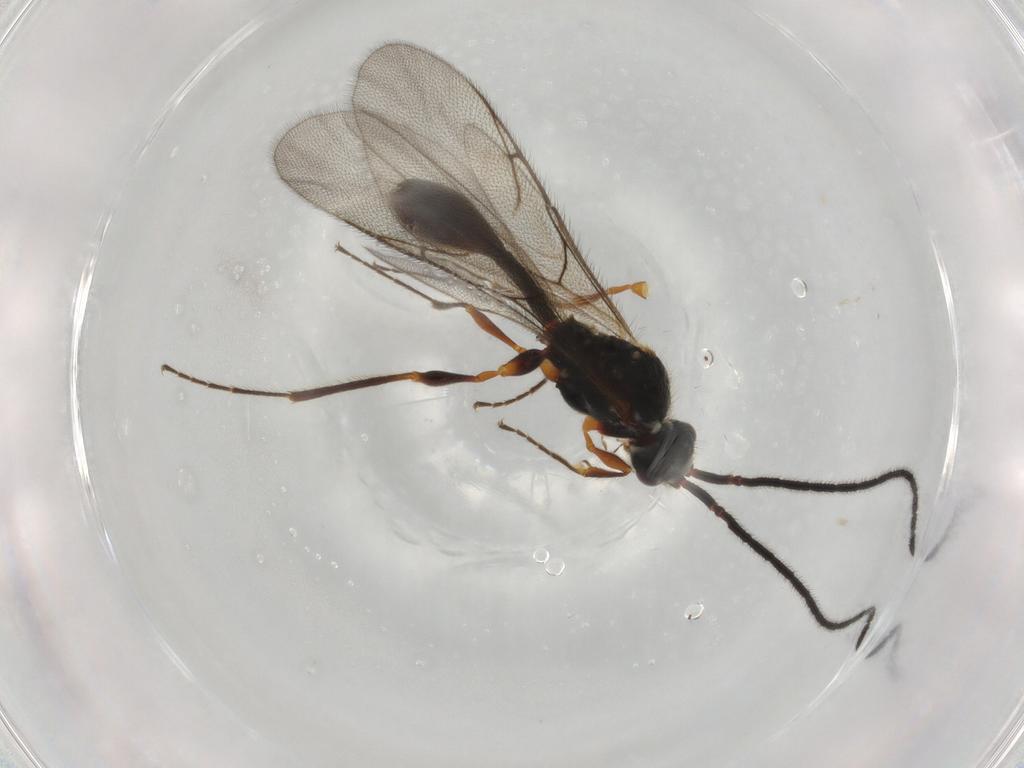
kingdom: Animalia
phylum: Arthropoda
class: Insecta
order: Hymenoptera
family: Diapriidae
